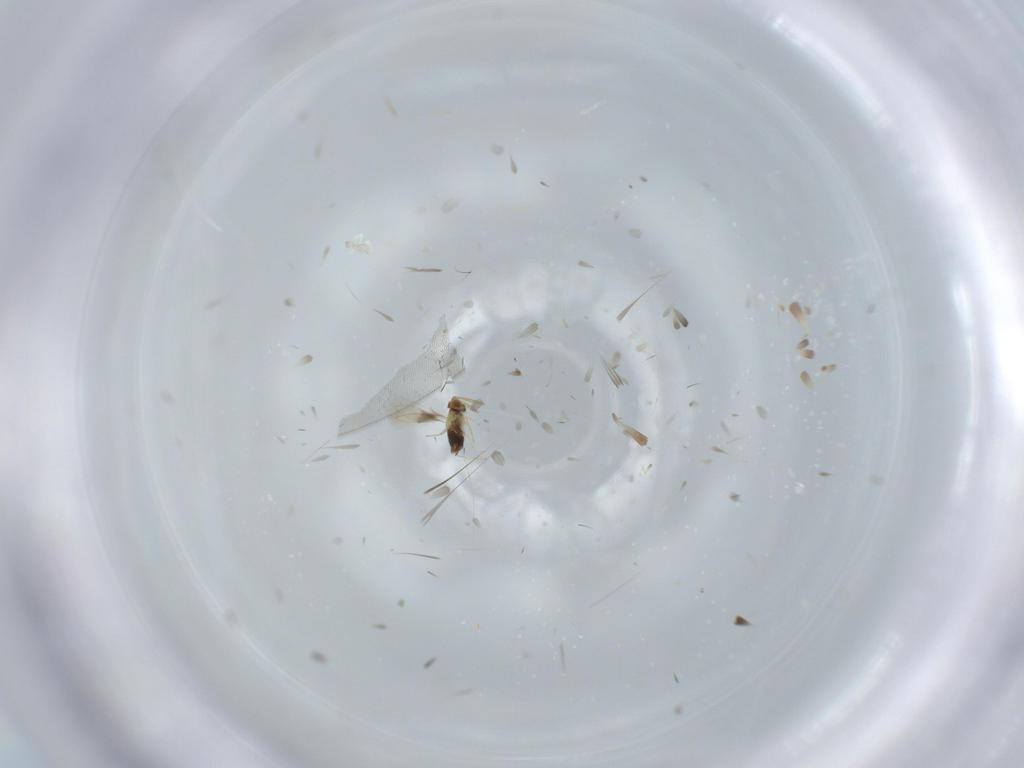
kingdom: Animalia
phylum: Arthropoda
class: Insecta
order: Hymenoptera
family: Aphelinidae
